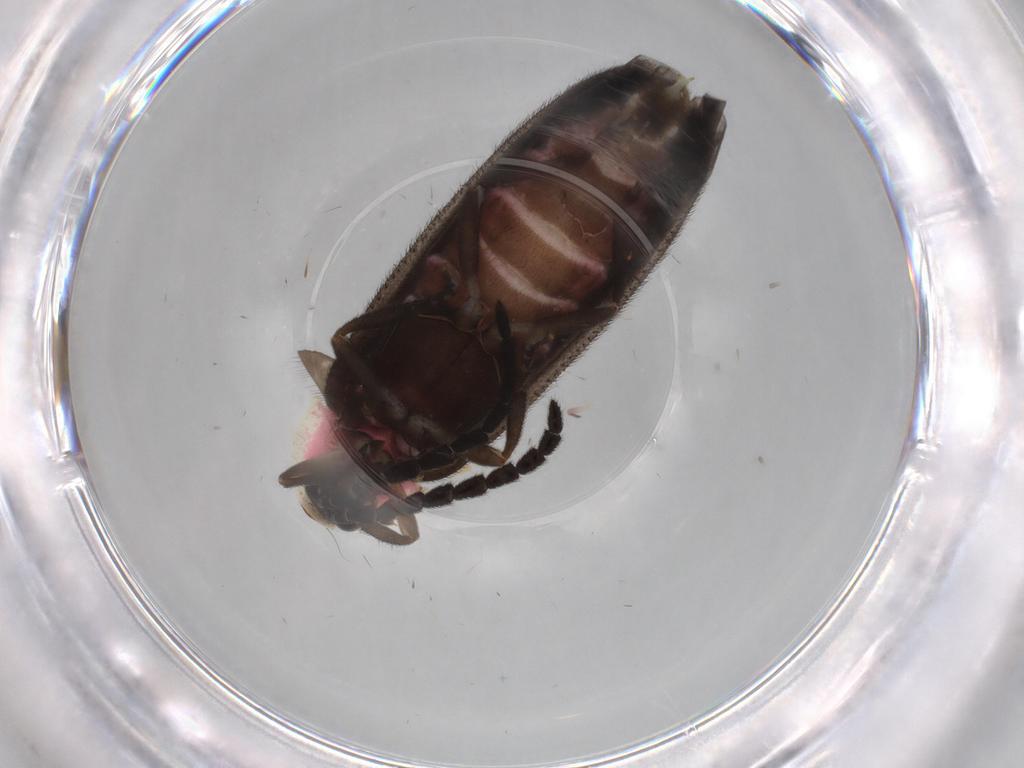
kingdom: Animalia
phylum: Arthropoda
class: Insecta
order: Coleoptera
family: Lampyridae
